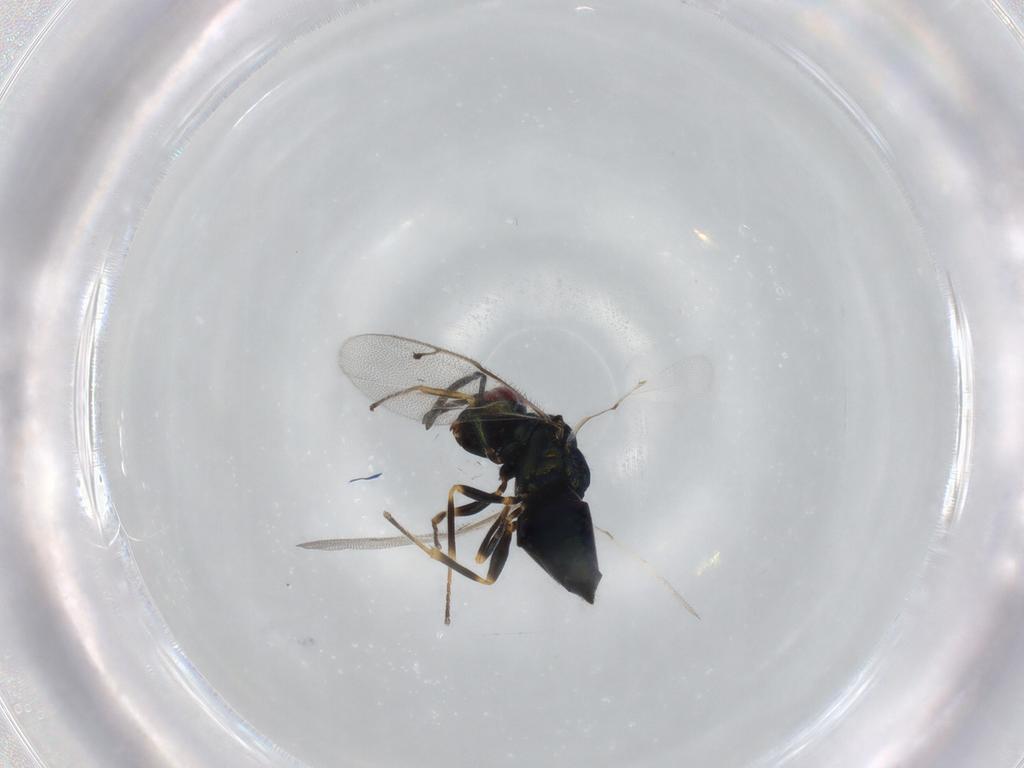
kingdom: Animalia
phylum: Arthropoda
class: Insecta
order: Hymenoptera
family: Pteromalidae
